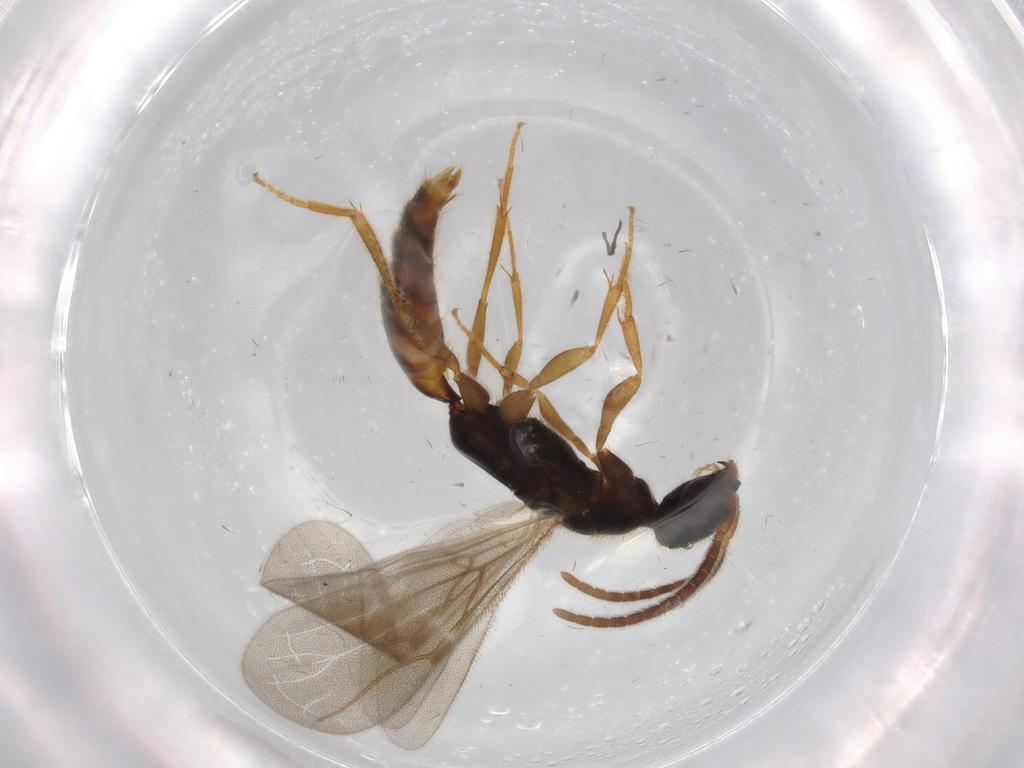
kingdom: Animalia
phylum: Arthropoda
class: Insecta
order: Hymenoptera
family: Bethylidae
